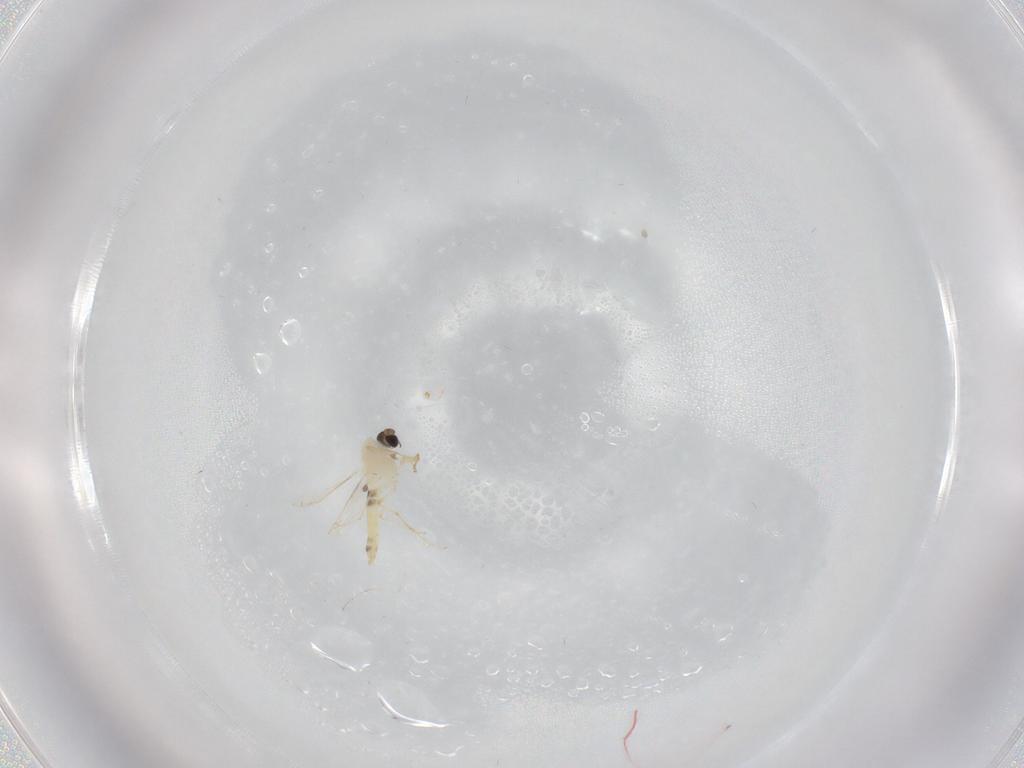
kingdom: Animalia
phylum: Arthropoda
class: Insecta
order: Diptera
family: Chironomidae
